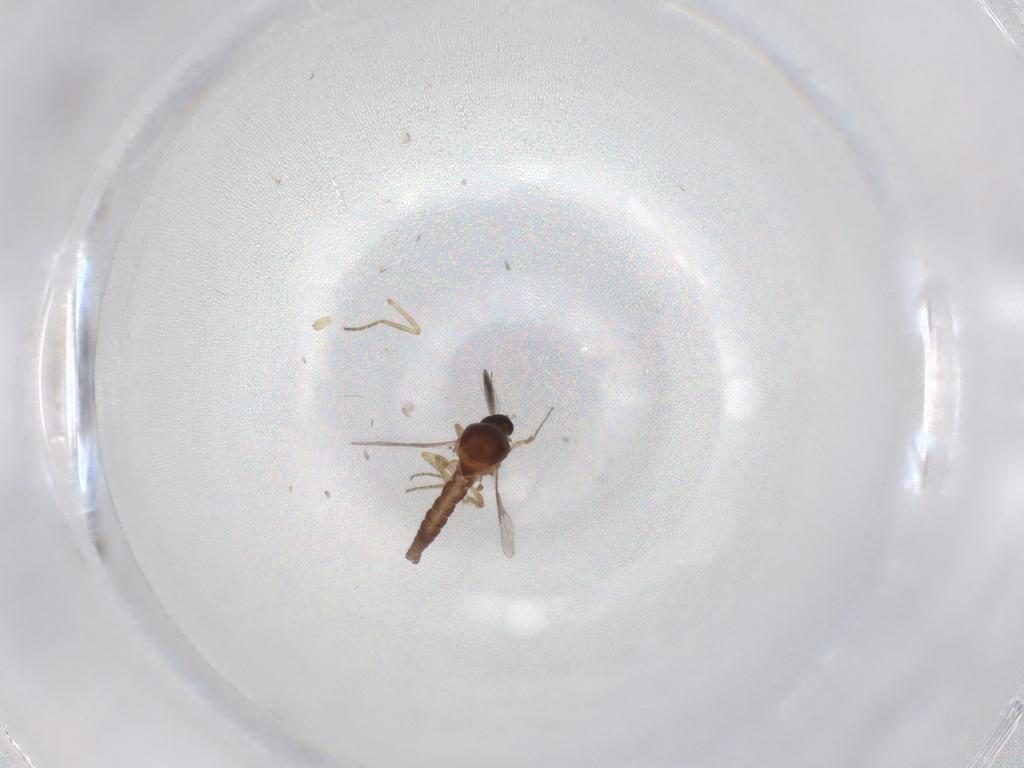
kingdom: Animalia
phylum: Arthropoda
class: Insecta
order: Diptera
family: Ceratopogonidae
